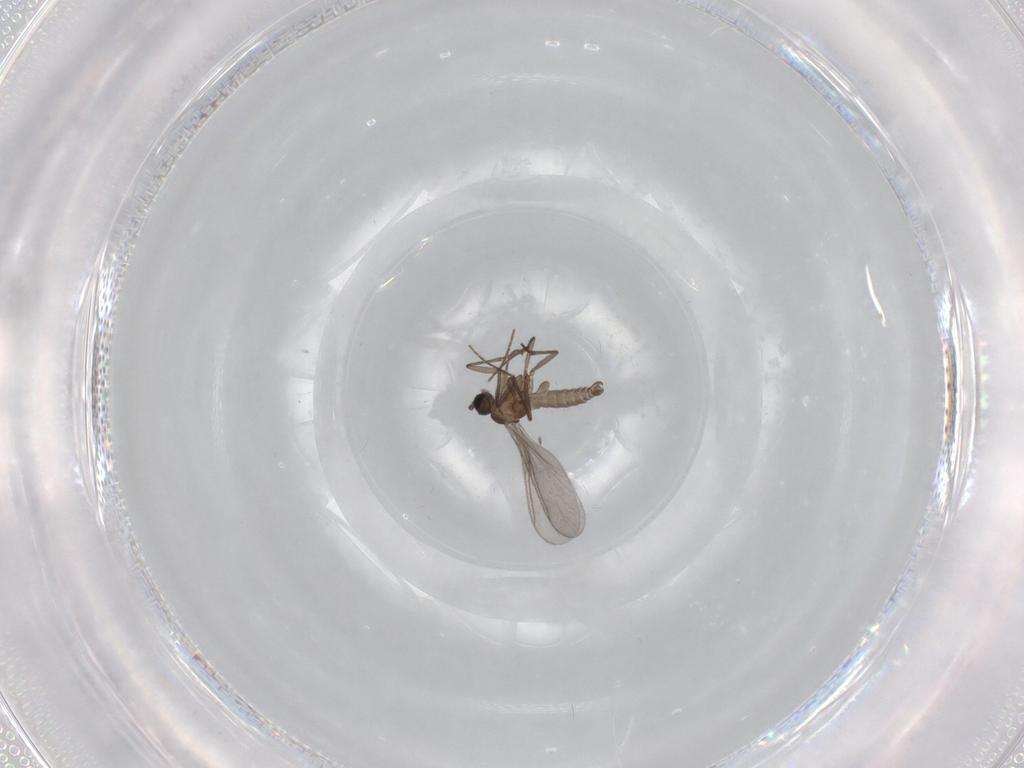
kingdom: Animalia
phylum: Arthropoda
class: Insecta
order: Diptera
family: Sciaridae
